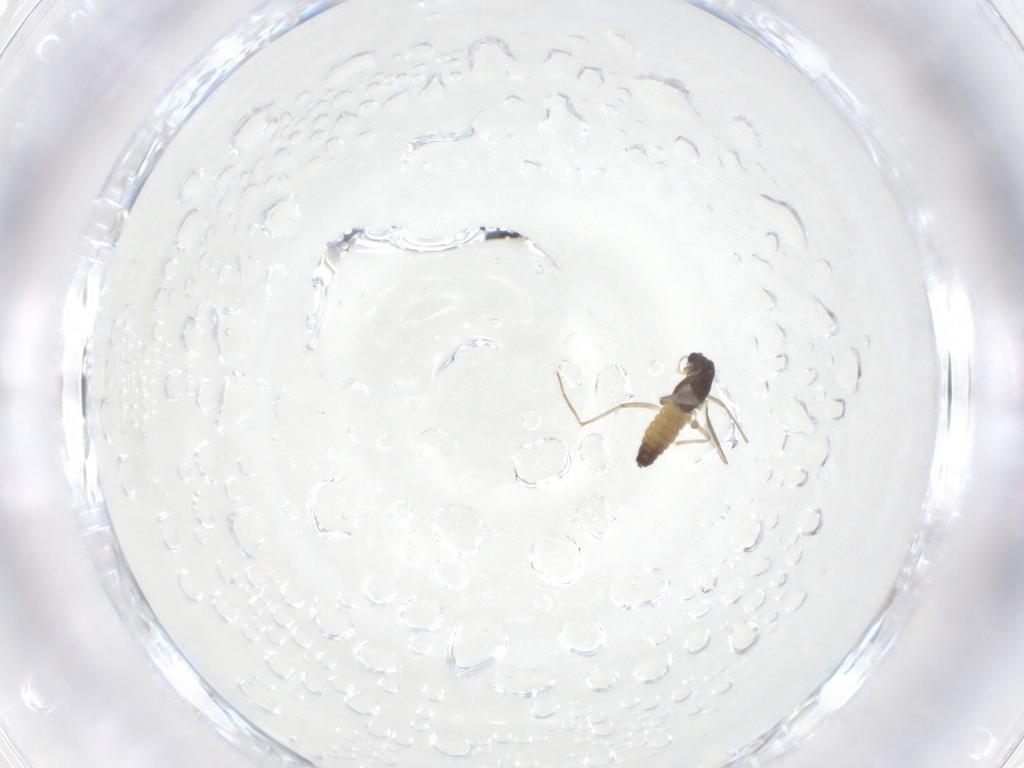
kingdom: Animalia
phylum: Arthropoda
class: Insecta
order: Diptera
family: Chironomidae
